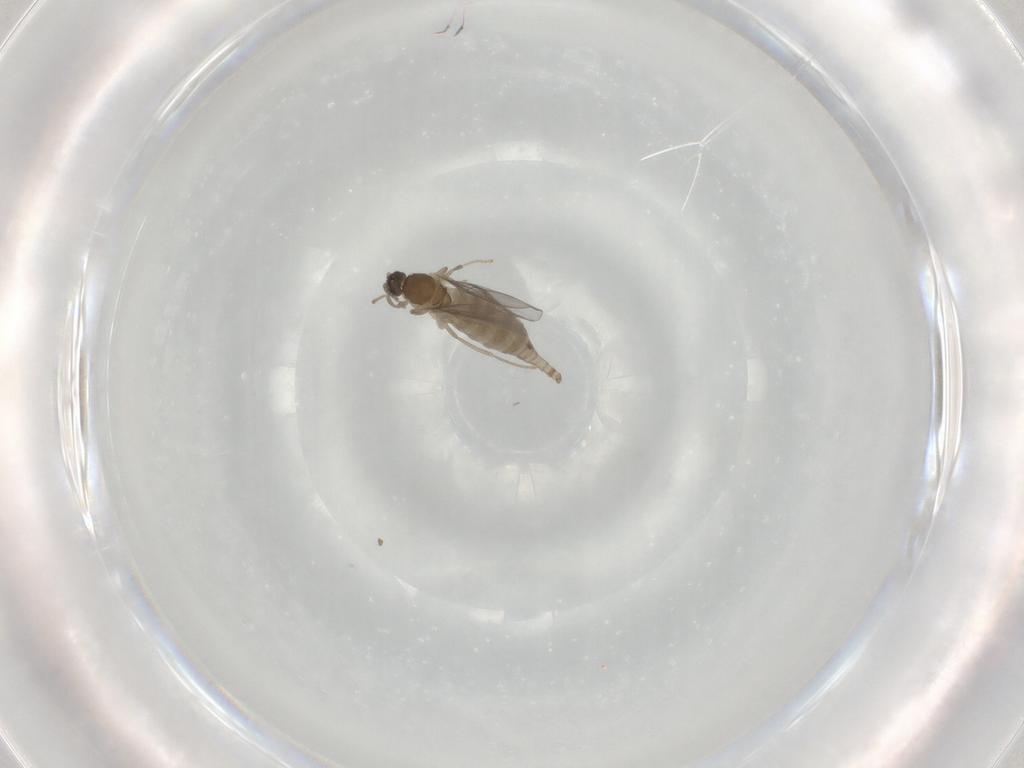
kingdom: Animalia
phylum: Arthropoda
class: Insecta
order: Diptera
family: Cecidomyiidae
